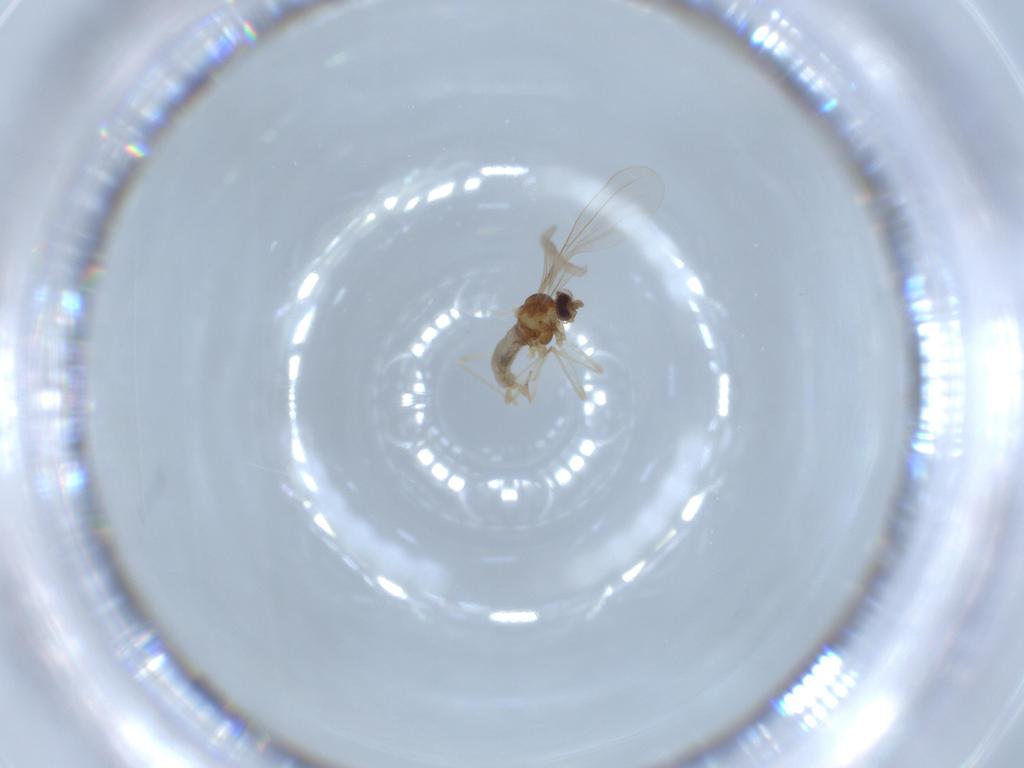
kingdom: Animalia
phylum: Arthropoda
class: Insecta
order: Diptera
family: Cecidomyiidae
